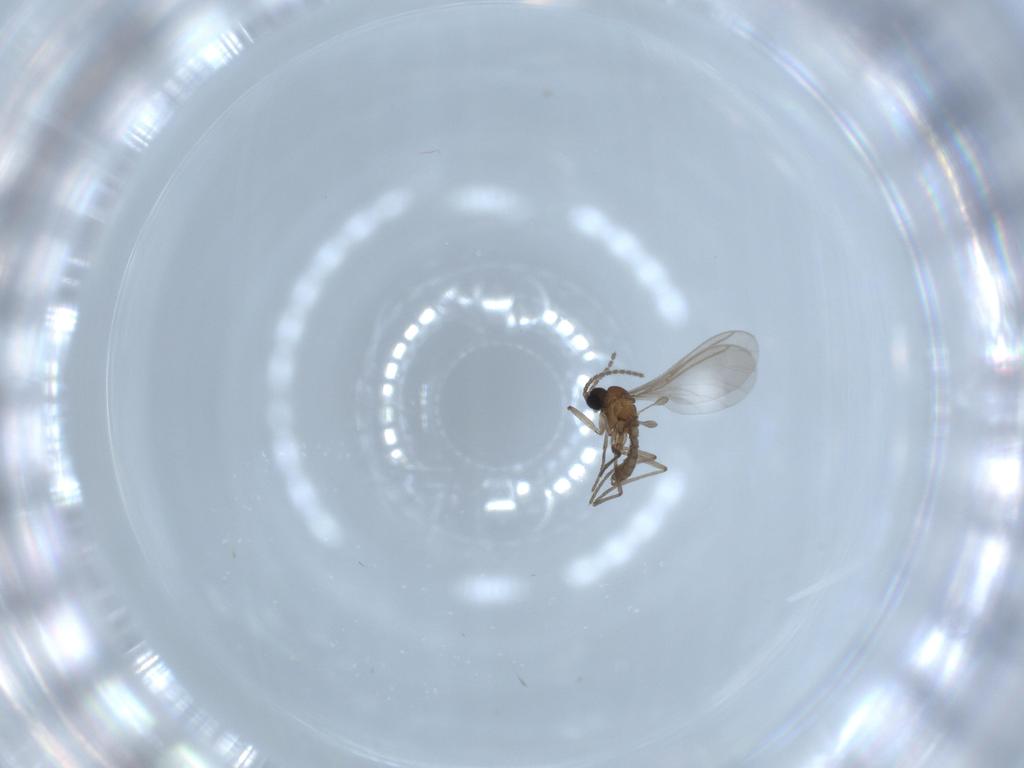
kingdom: Animalia
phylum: Arthropoda
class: Insecta
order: Diptera
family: Sciaridae
